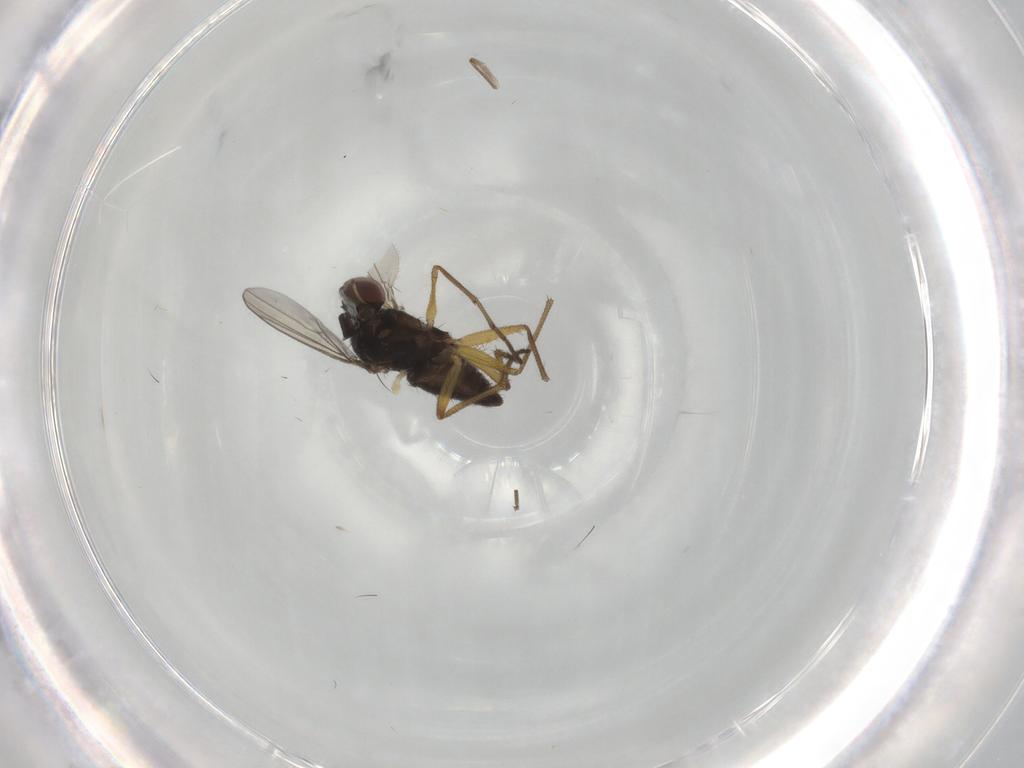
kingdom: Animalia
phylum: Arthropoda
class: Insecta
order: Diptera
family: Dolichopodidae
